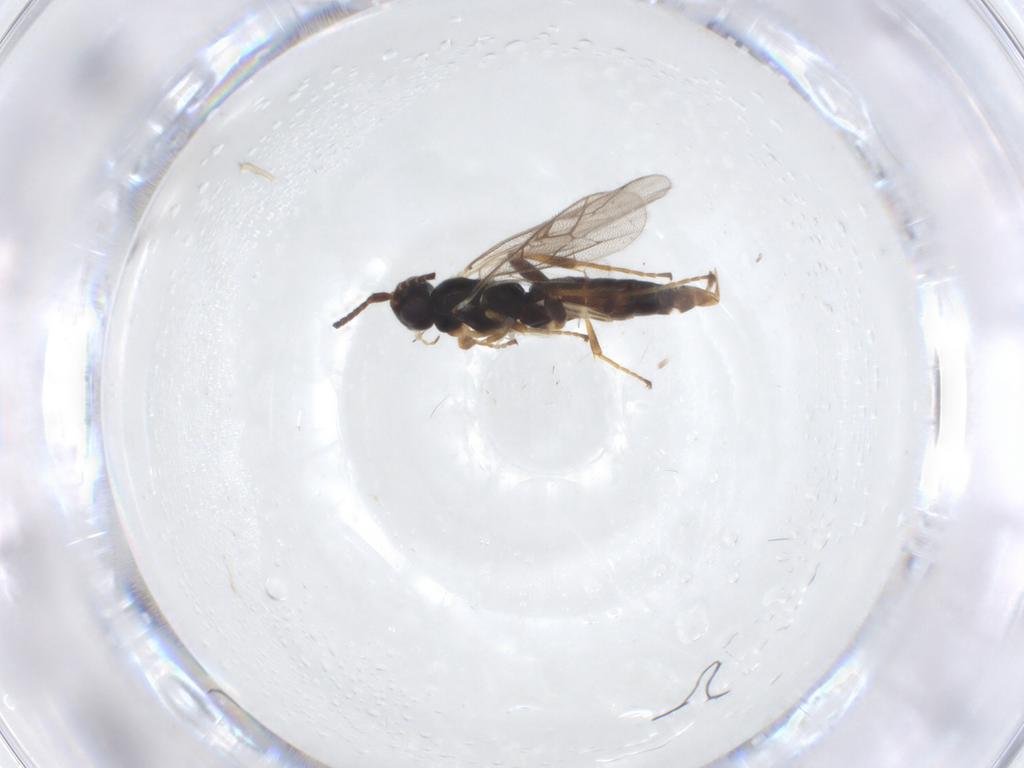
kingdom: Animalia
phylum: Arthropoda
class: Insecta
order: Hymenoptera
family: Ichneumonidae
